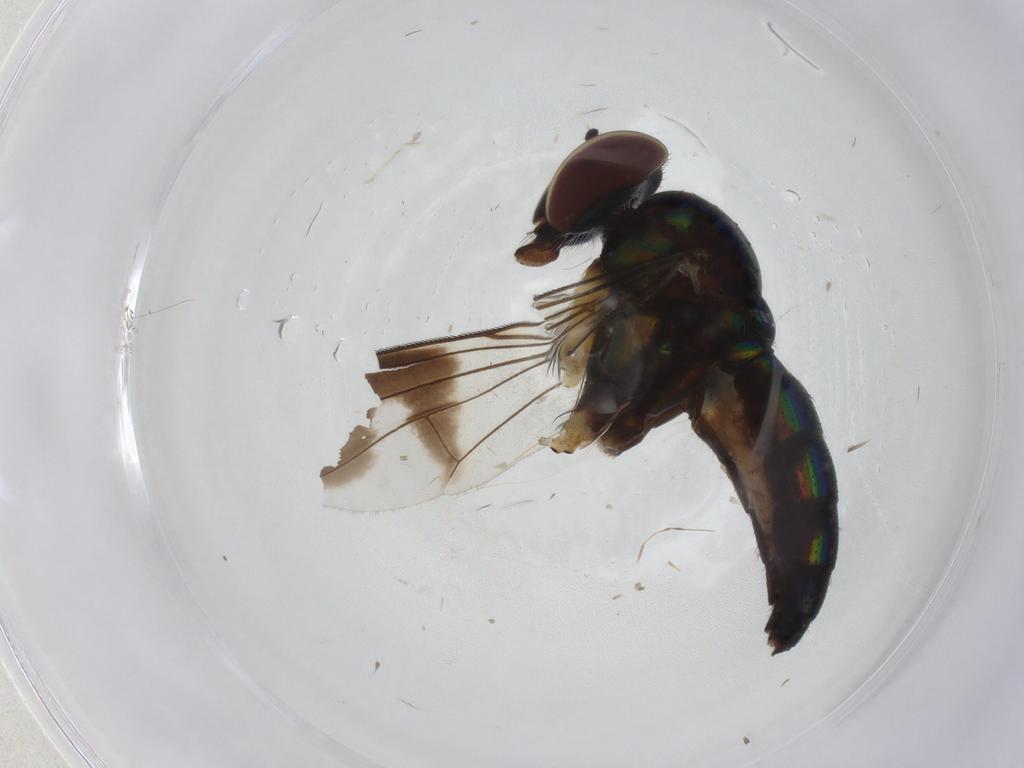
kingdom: Animalia
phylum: Arthropoda
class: Insecta
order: Diptera
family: Dolichopodidae
